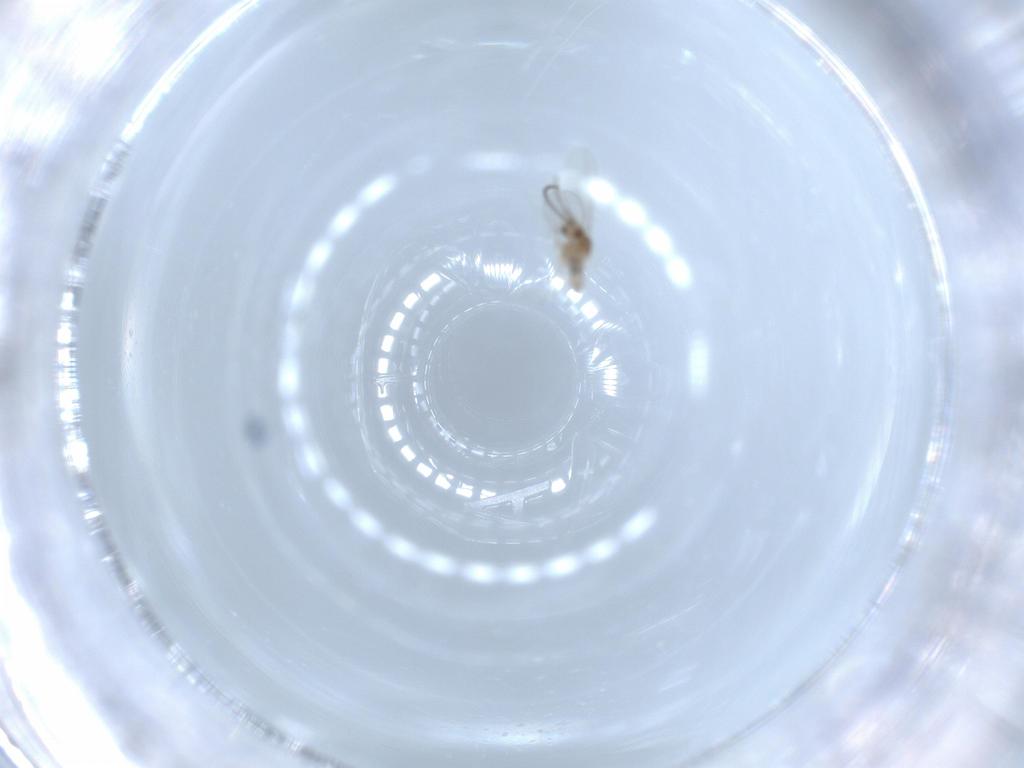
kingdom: Animalia
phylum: Arthropoda
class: Insecta
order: Diptera
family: Cecidomyiidae
